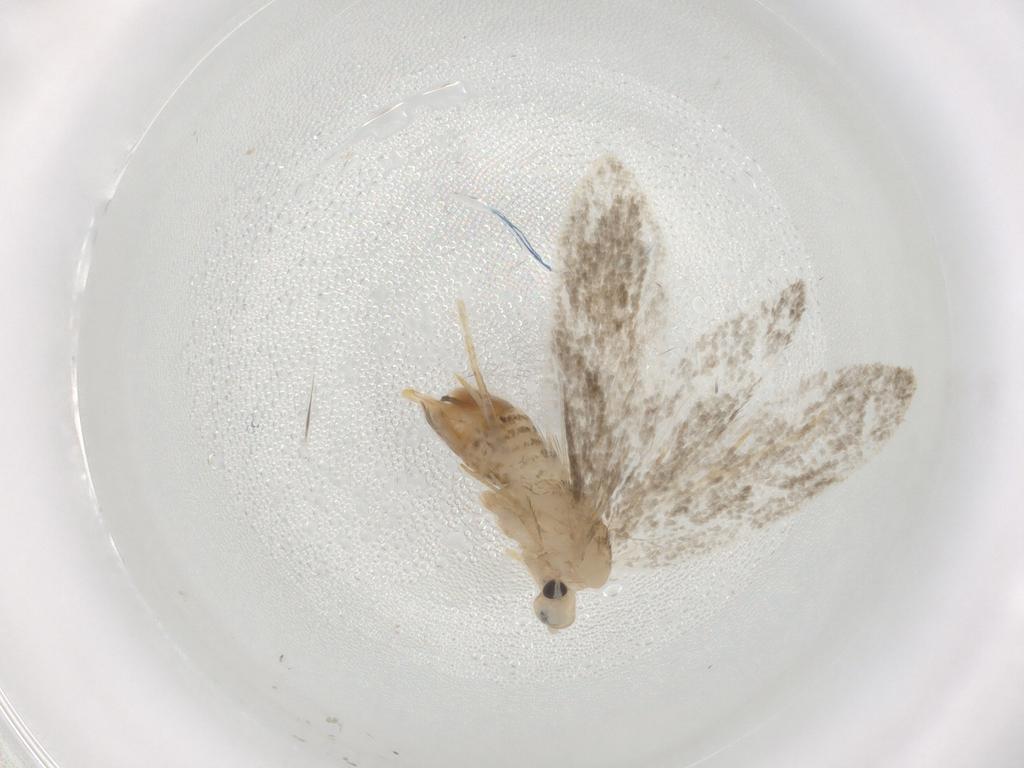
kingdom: Animalia
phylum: Arthropoda
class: Insecta
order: Lepidoptera
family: Psychidae
